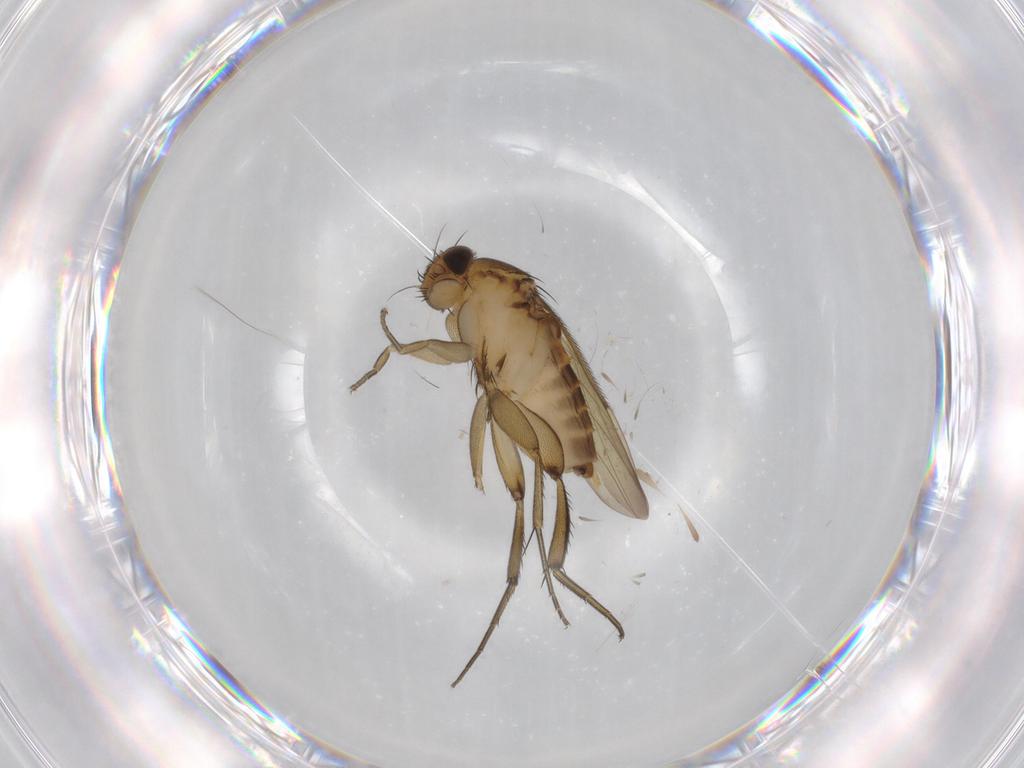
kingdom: Animalia
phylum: Arthropoda
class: Insecta
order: Diptera
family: Phoridae
